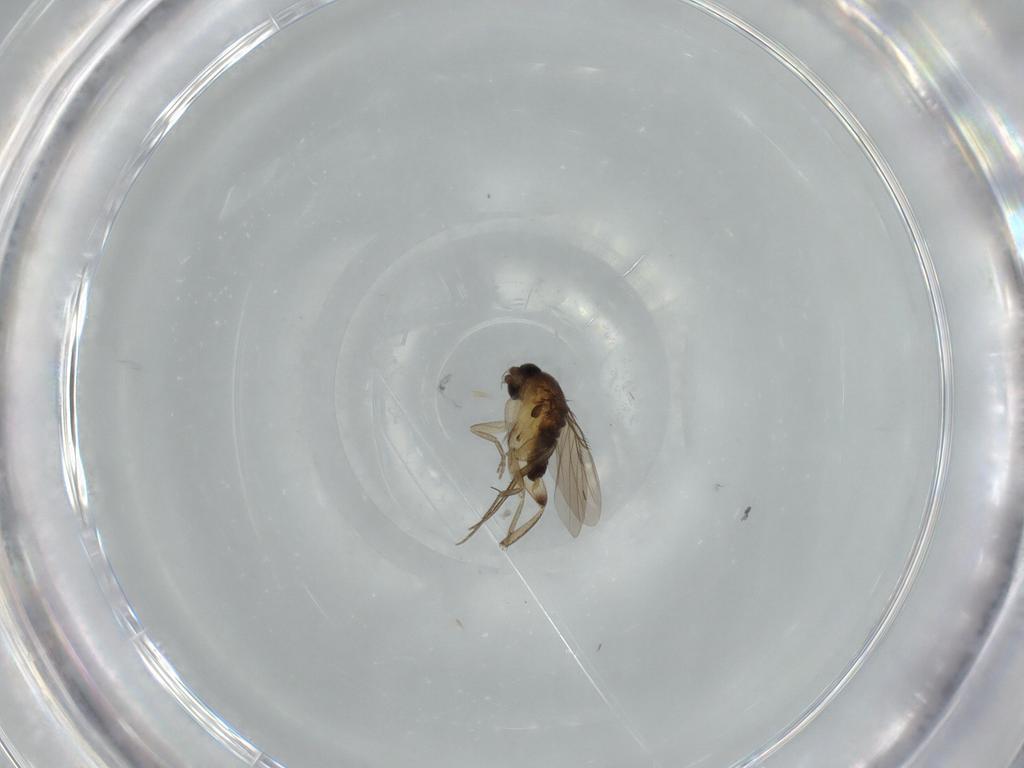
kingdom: Animalia
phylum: Arthropoda
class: Insecta
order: Diptera
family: Phoridae
